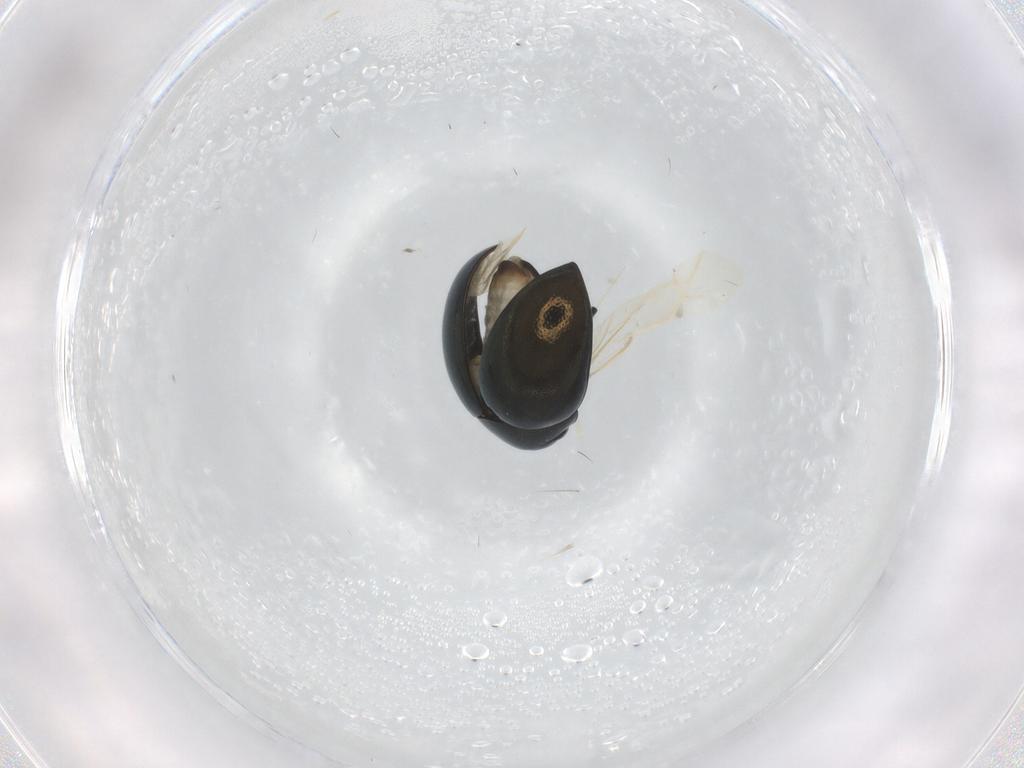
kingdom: Animalia
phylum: Arthropoda
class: Insecta
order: Coleoptera
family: Chrysomelidae
